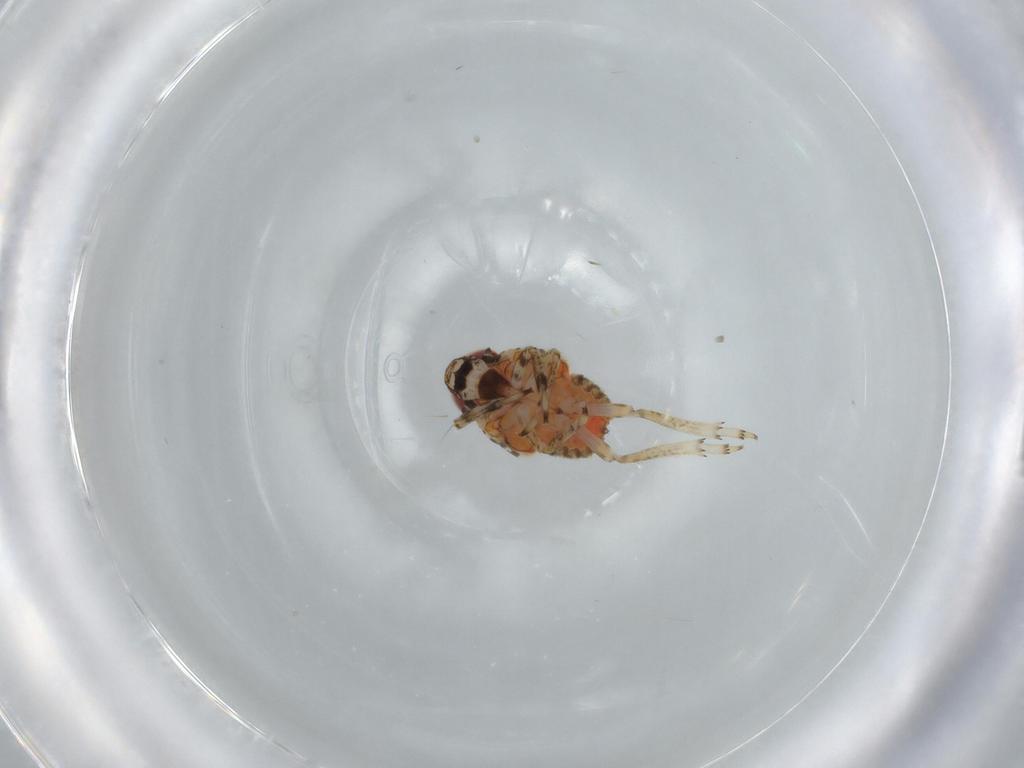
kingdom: Animalia
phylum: Arthropoda
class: Insecta
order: Hemiptera
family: Issidae
